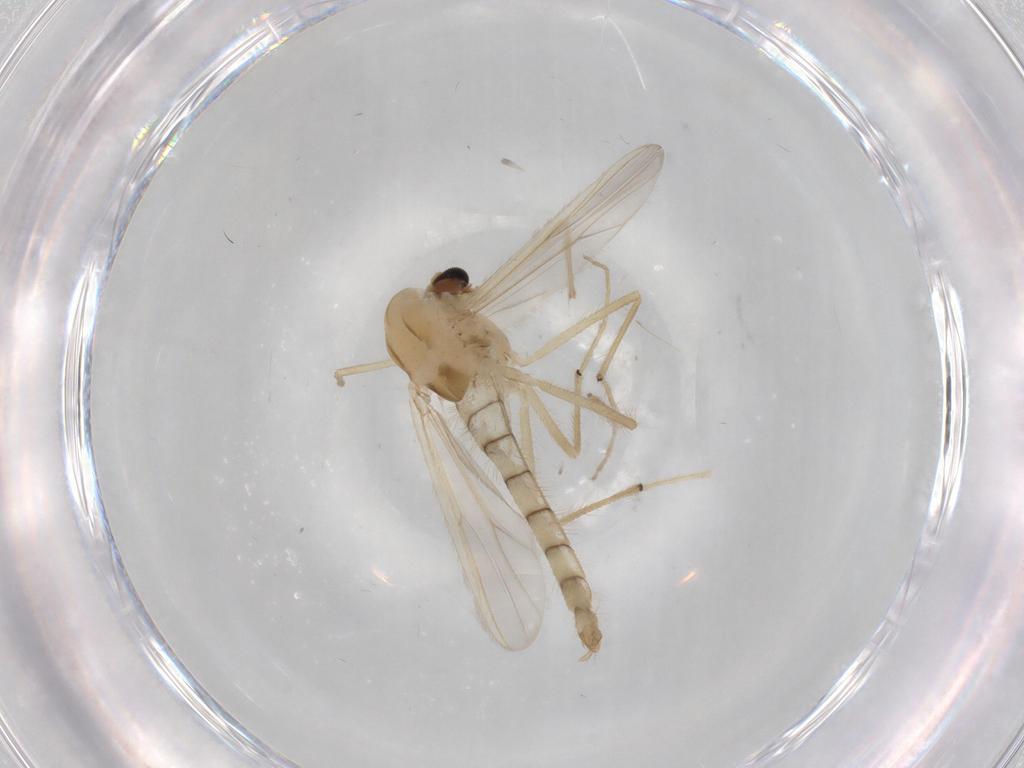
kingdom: Animalia
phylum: Arthropoda
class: Insecta
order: Diptera
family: Chironomidae
